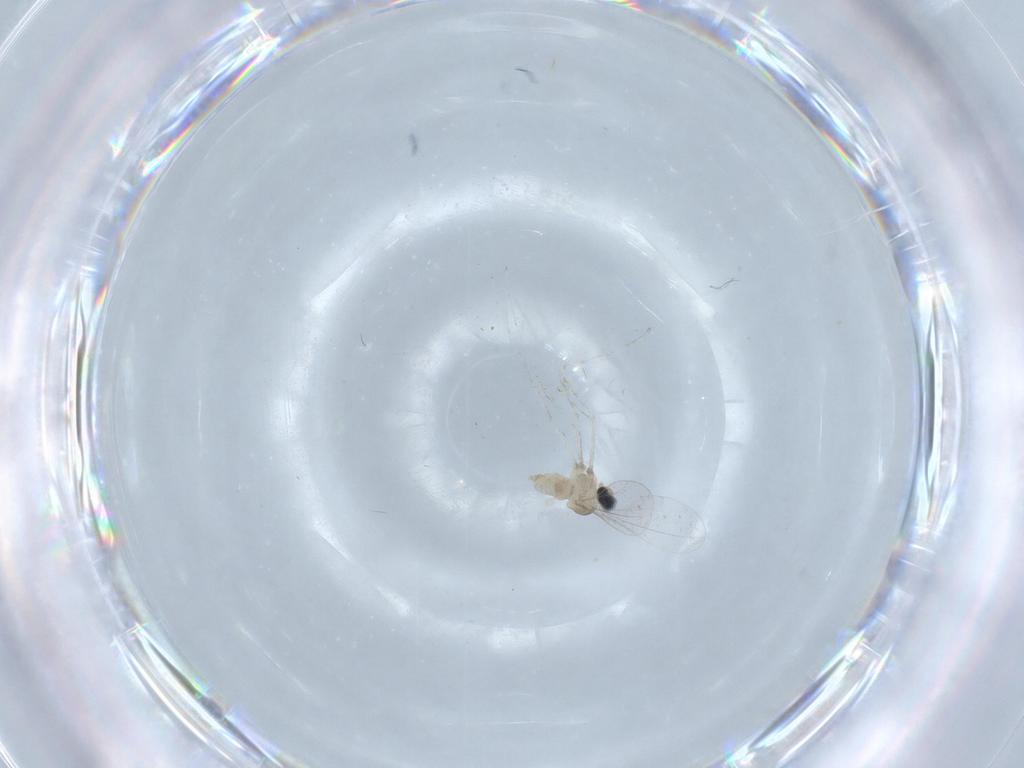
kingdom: Animalia
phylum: Arthropoda
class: Insecta
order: Diptera
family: Cecidomyiidae
